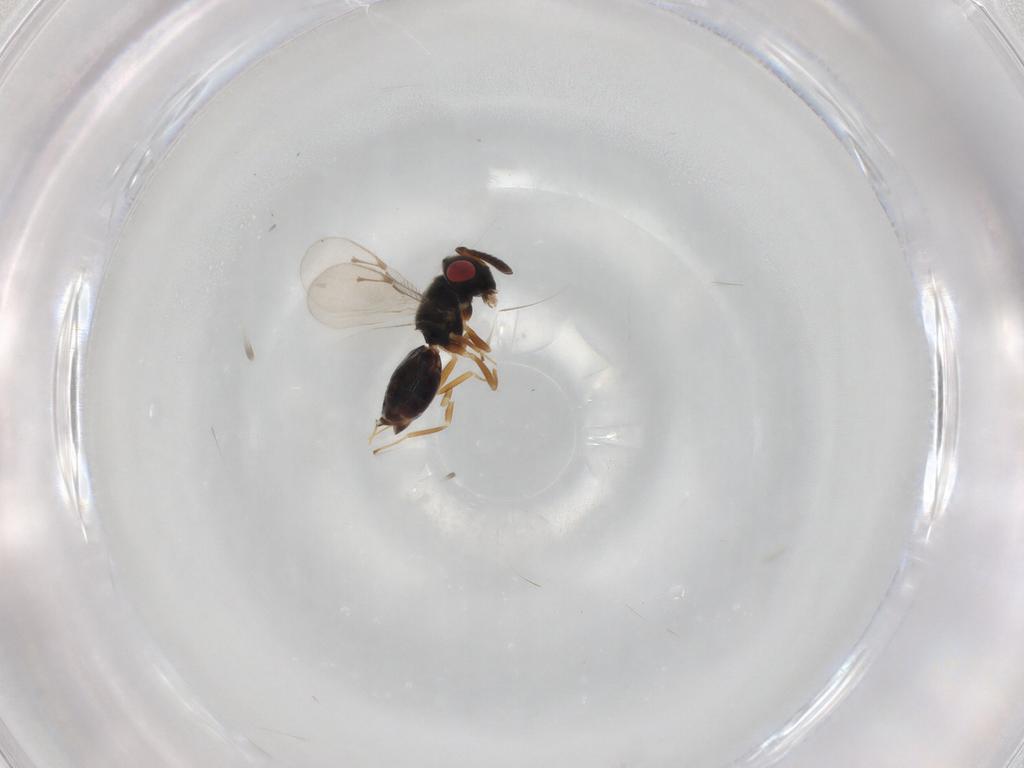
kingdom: Animalia
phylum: Arthropoda
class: Insecta
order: Hymenoptera
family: Pteromalidae
